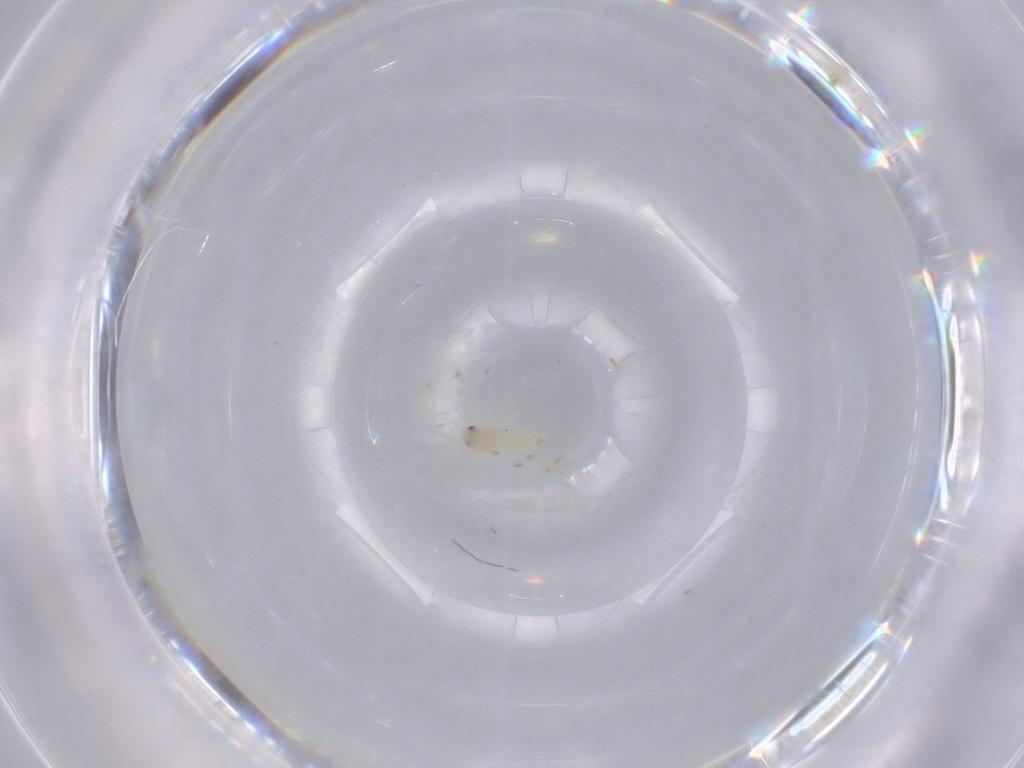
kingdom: Animalia
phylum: Arthropoda
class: Insecta
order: Hemiptera
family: Aleyrodidae
